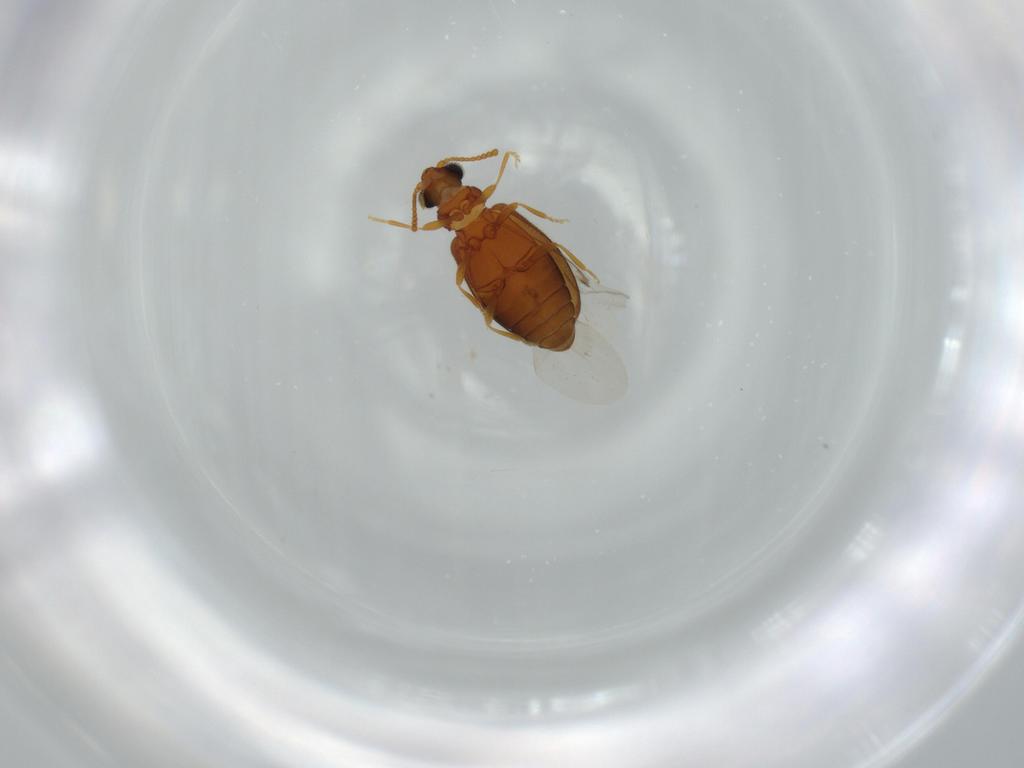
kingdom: Animalia
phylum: Arthropoda
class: Insecta
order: Coleoptera
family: Aderidae
